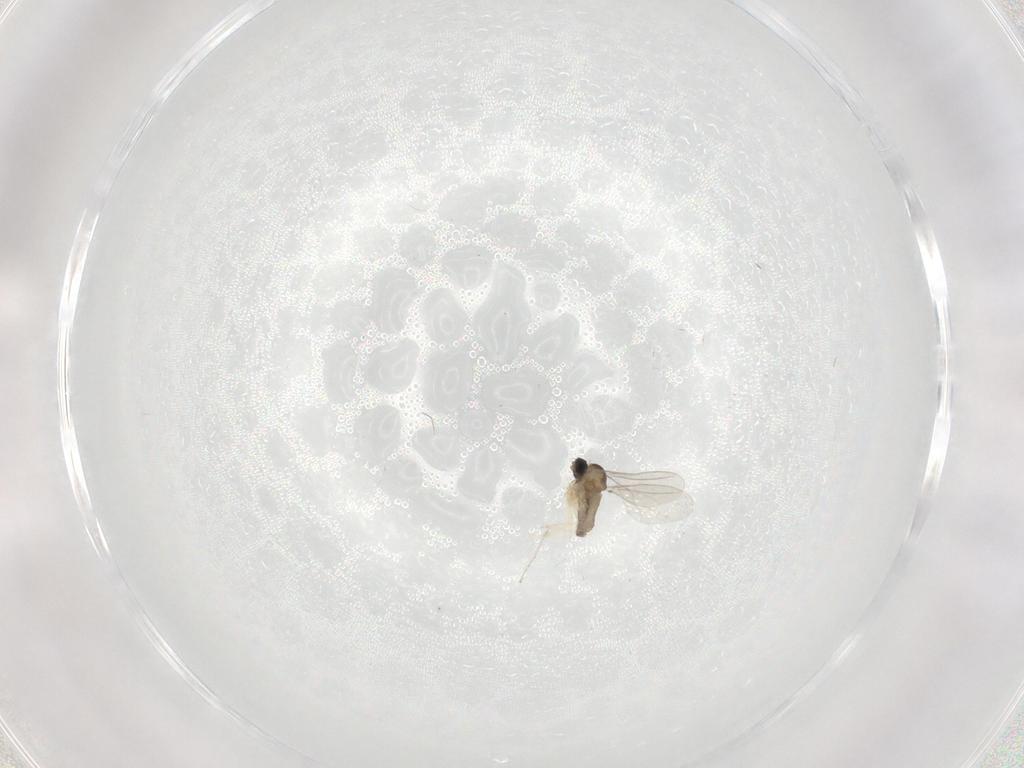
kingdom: Animalia
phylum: Arthropoda
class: Insecta
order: Diptera
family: Cecidomyiidae
